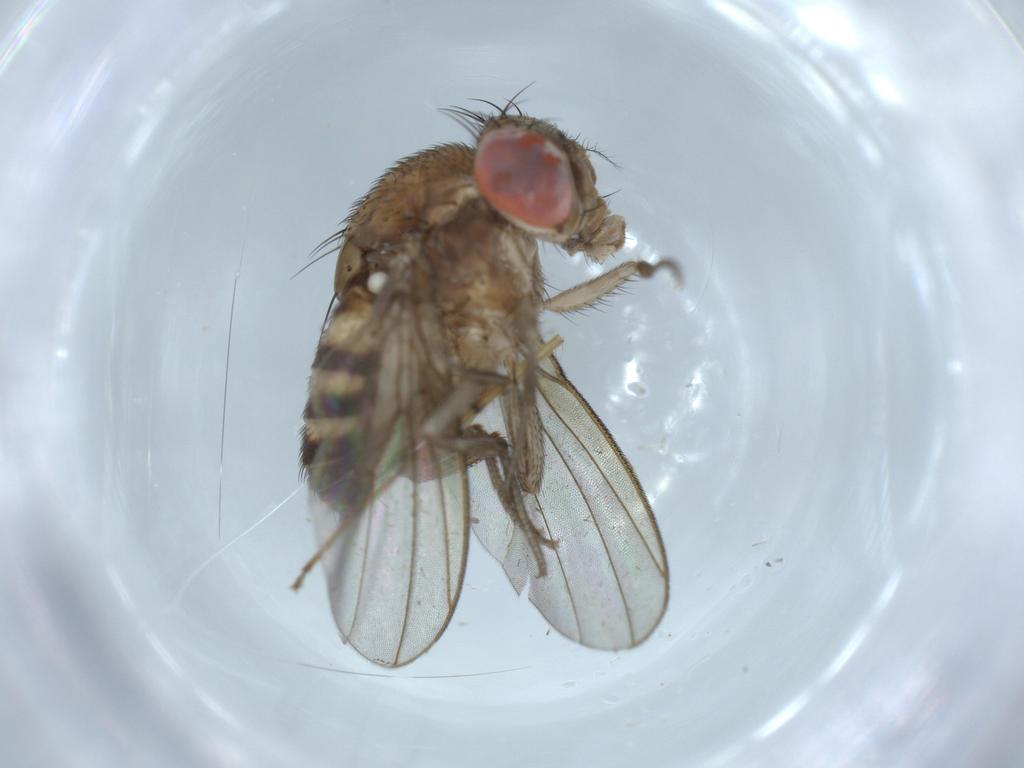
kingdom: Animalia
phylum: Arthropoda
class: Insecta
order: Diptera
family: Drosophilidae
